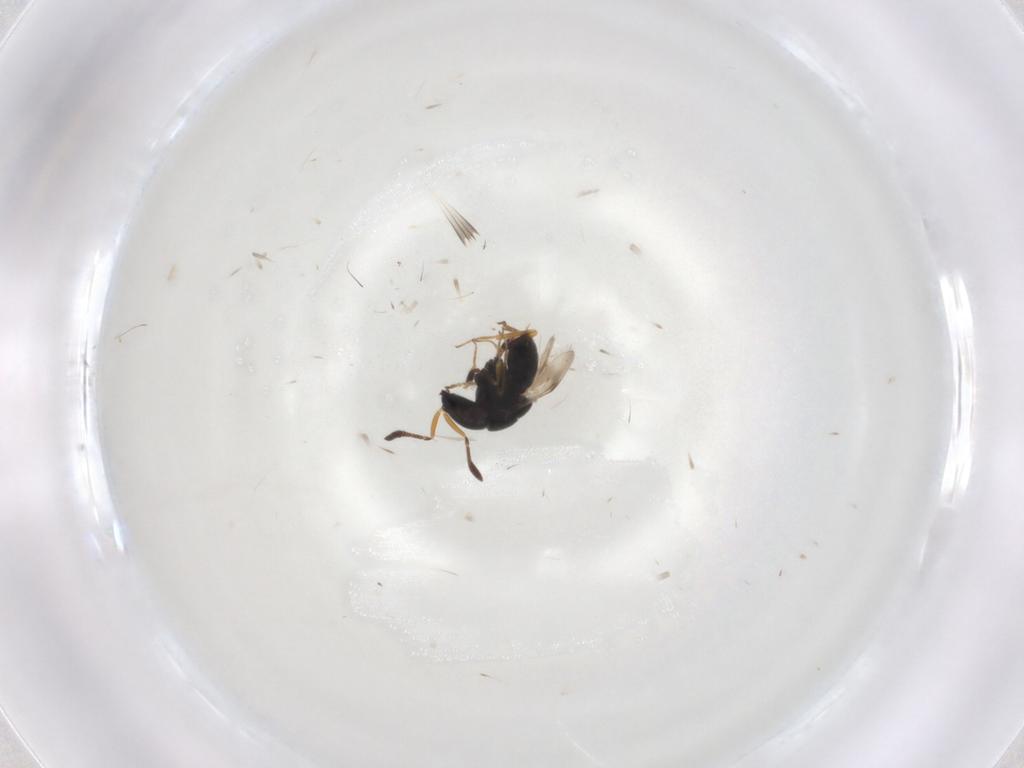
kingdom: Animalia
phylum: Arthropoda
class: Insecta
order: Hymenoptera
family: Braconidae
